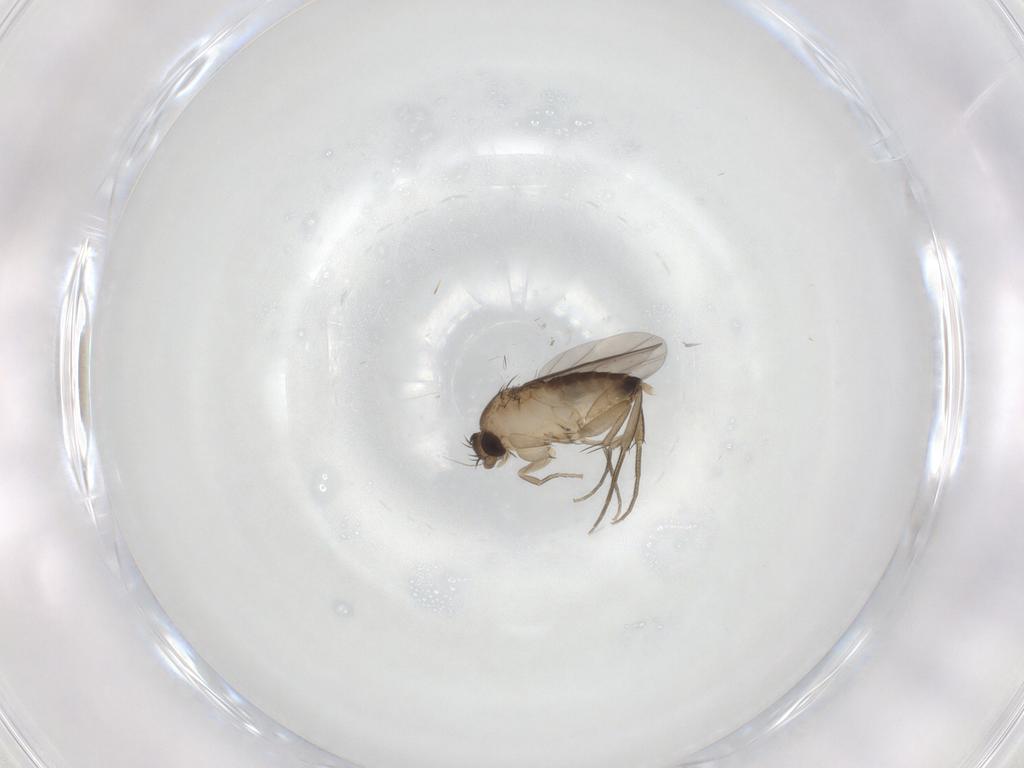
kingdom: Animalia
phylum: Arthropoda
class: Insecta
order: Diptera
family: Phoridae
